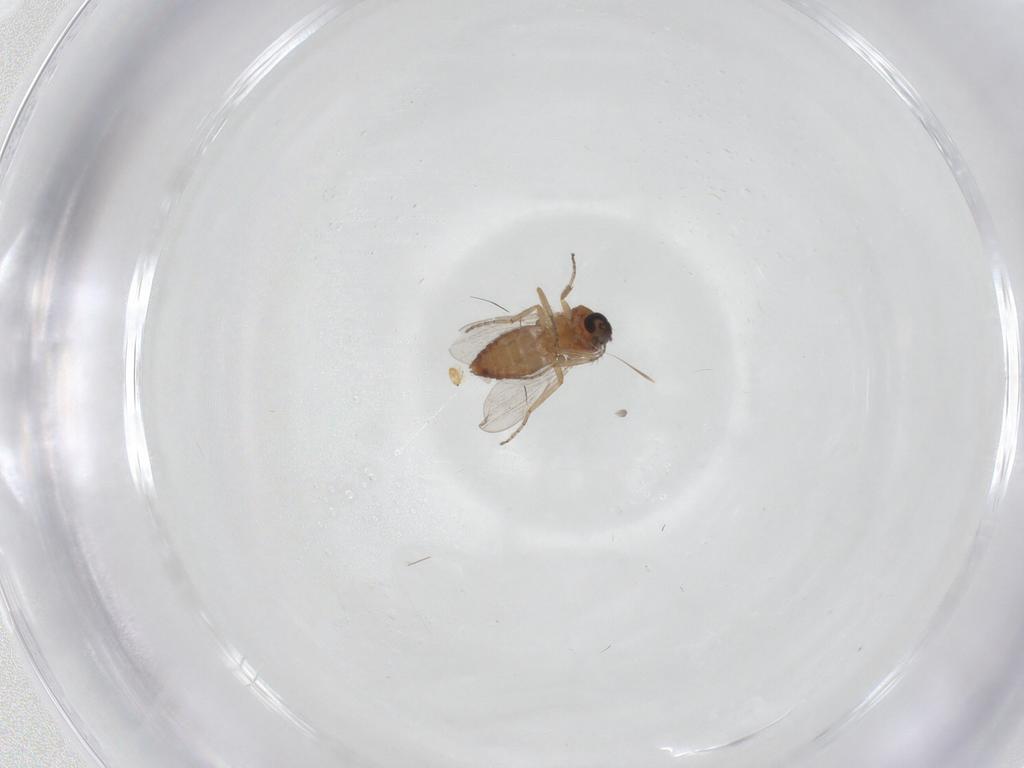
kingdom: Animalia
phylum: Arthropoda
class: Insecta
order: Diptera
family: Ceratopogonidae
